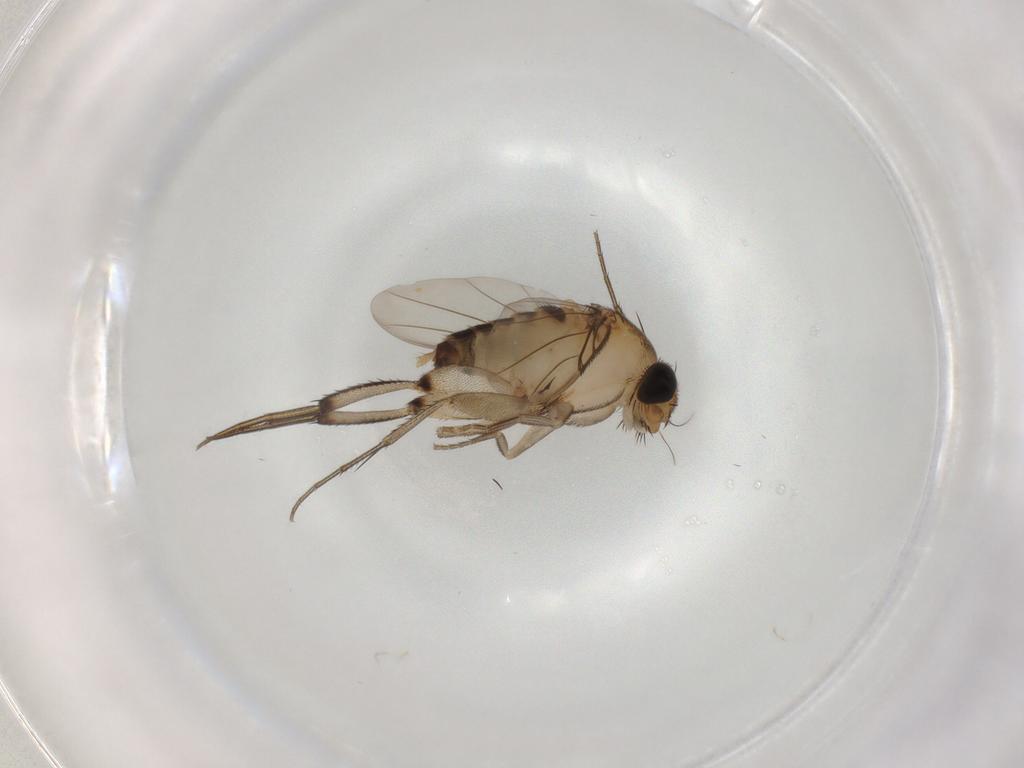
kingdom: Animalia
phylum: Arthropoda
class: Insecta
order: Diptera
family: Phoridae
